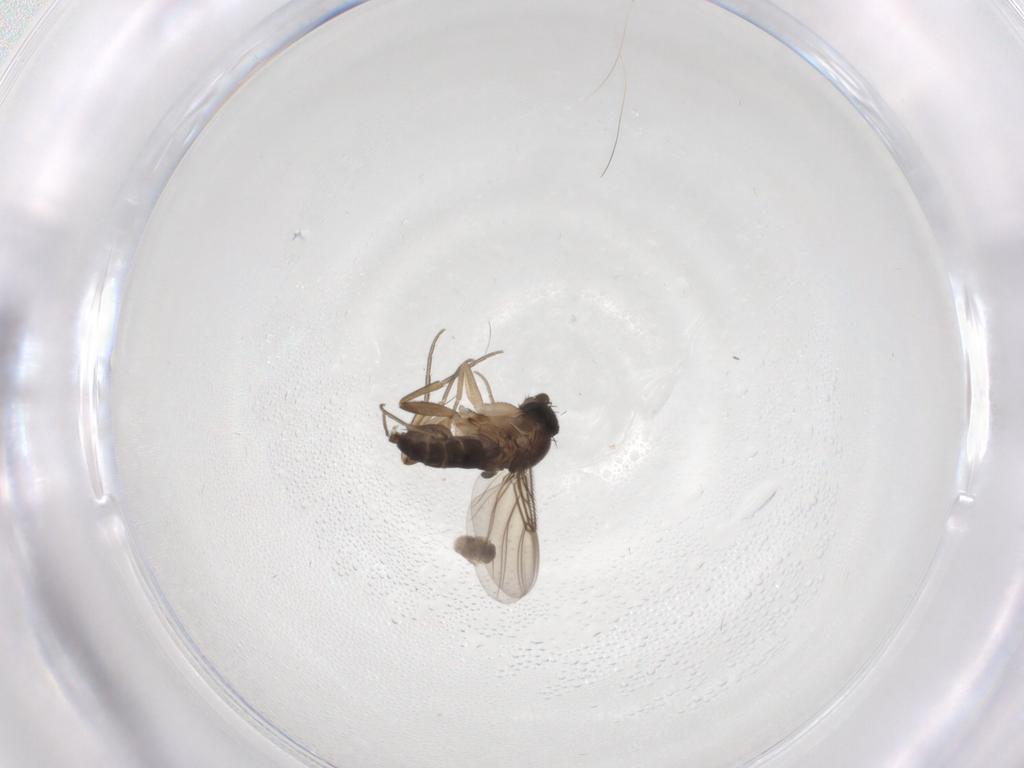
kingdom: Animalia
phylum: Arthropoda
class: Insecta
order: Diptera
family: Cecidomyiidae
